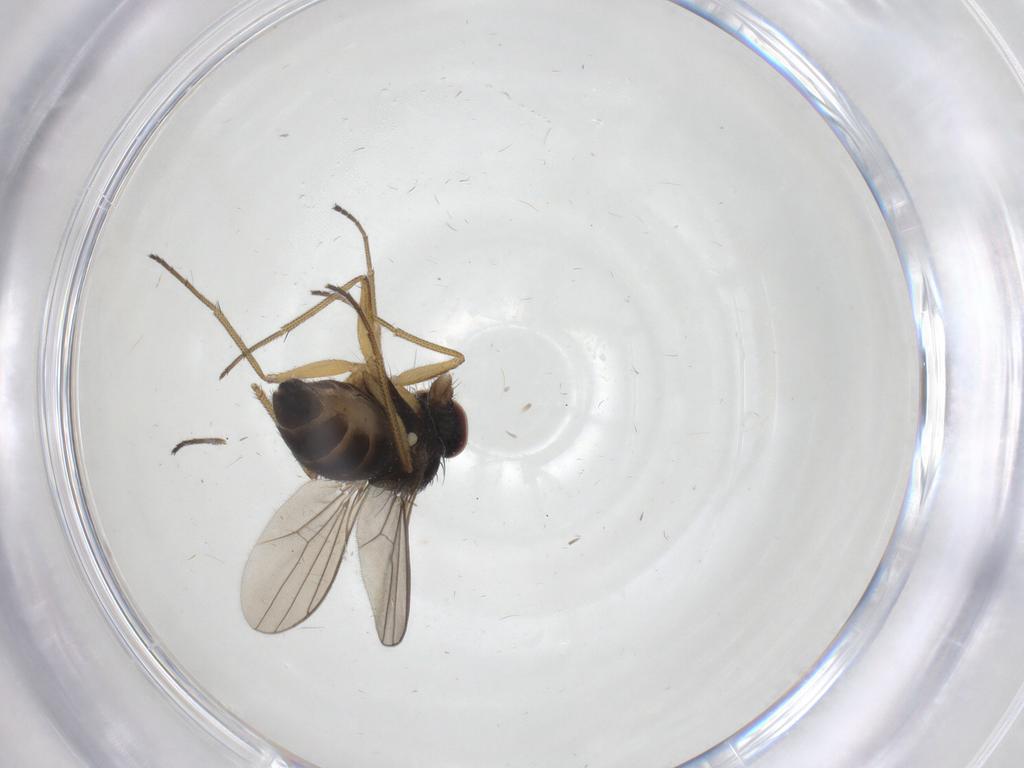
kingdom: Animalia
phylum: Arthropoda
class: Insecta
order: Diptera
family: Dolichopodidae
